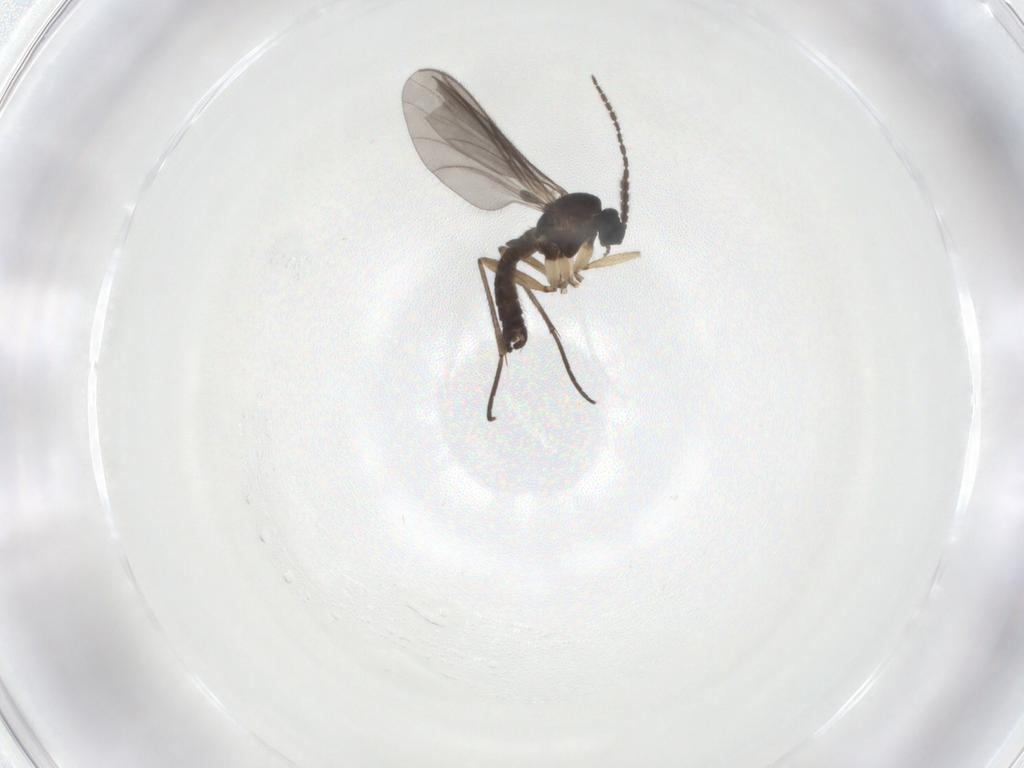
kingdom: Animalia
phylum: Arthropoda
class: Insecta
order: Diptera
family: Sciaridae
